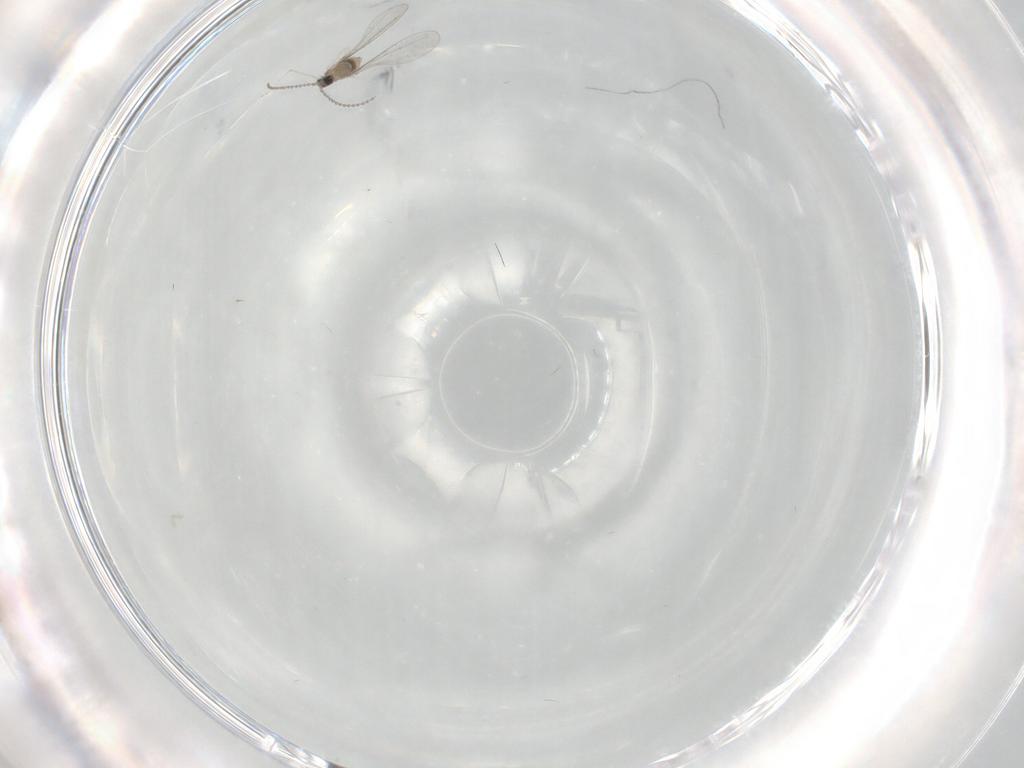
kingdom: Animalia
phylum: Arthropoda
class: Insecta
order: Diptera
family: Cecidomyiidae
